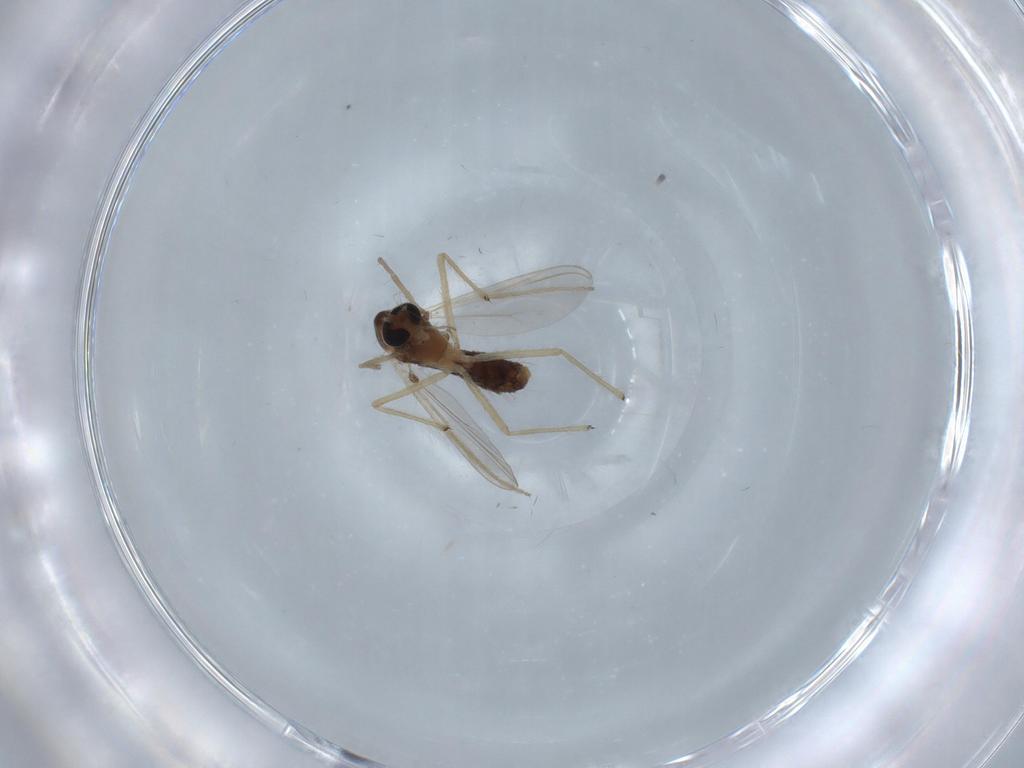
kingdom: Animalia
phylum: Arthropoda
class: Insecta
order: Diptera
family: Chironomidae
